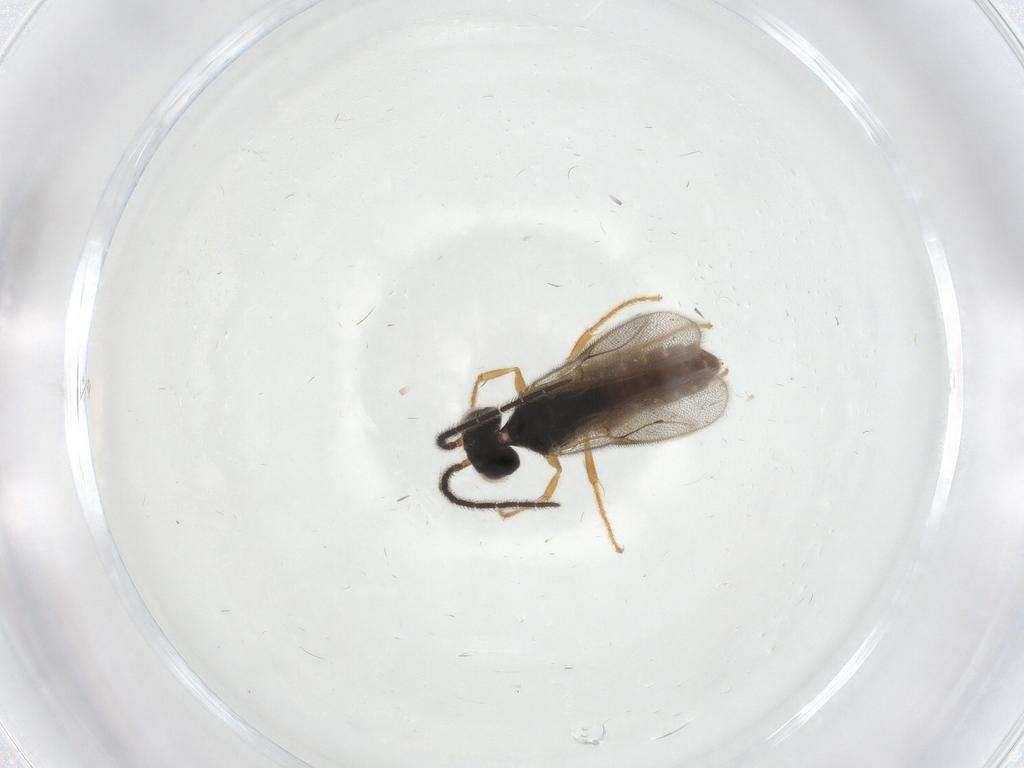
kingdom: Animalia
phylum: Arthropoda
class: Insecta
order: Hymenoptera
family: Dryinidae
